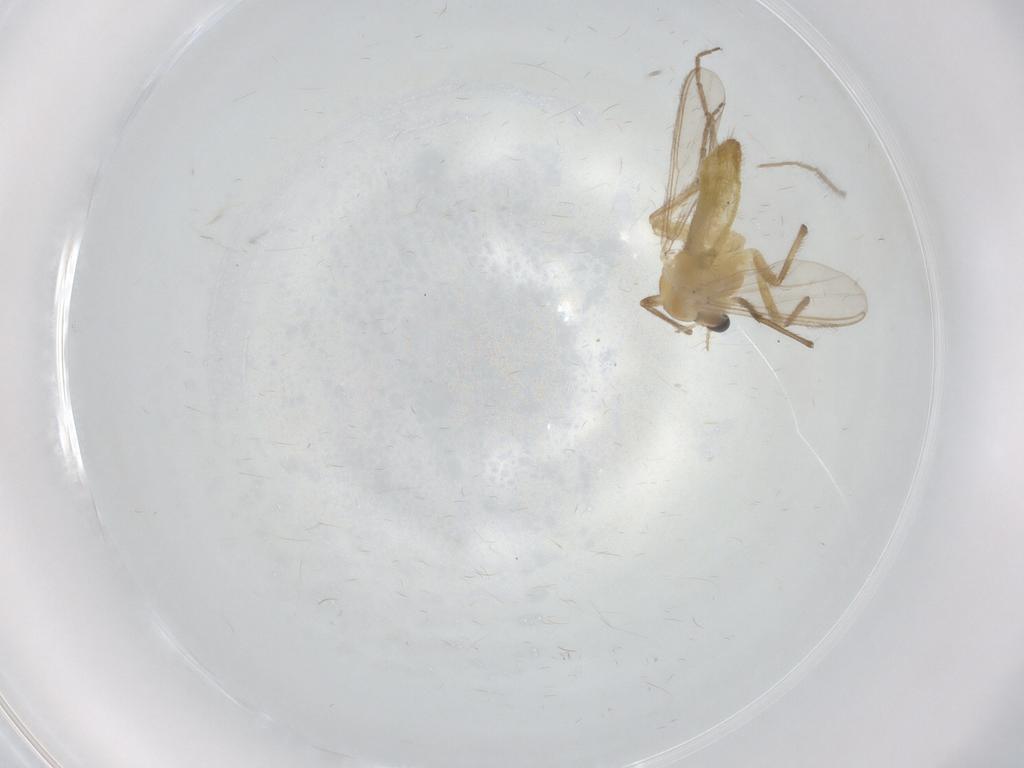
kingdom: Animalia
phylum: Arthropoda
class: Insecta
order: Diptera
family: Chironomidae
